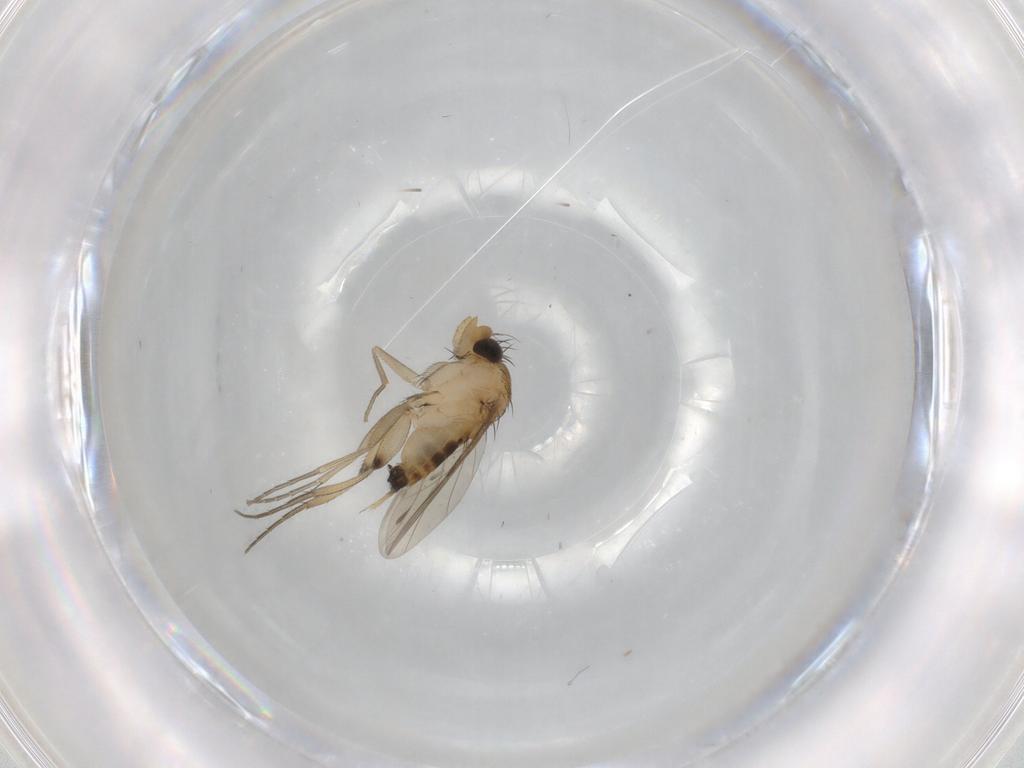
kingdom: Animalia
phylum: Arthropoda
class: Insecta
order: Diptera
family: Phoridae
